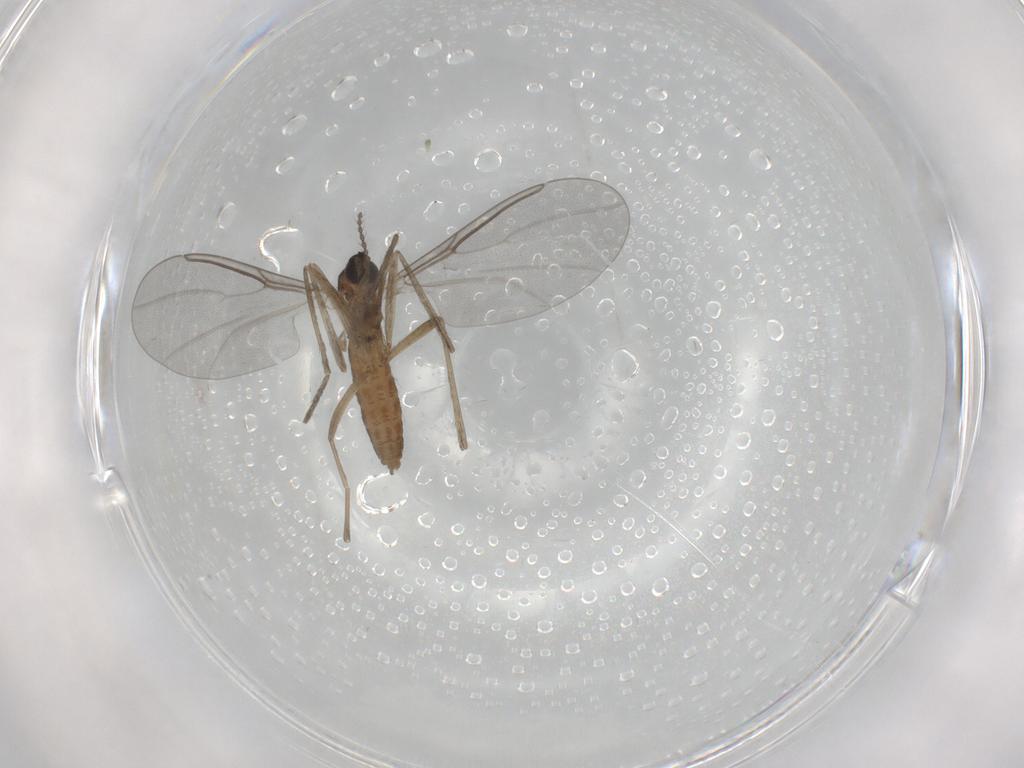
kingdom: Animalia
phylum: Arthropoda
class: Insecta
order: Diptera
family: Cecidomyiidae
